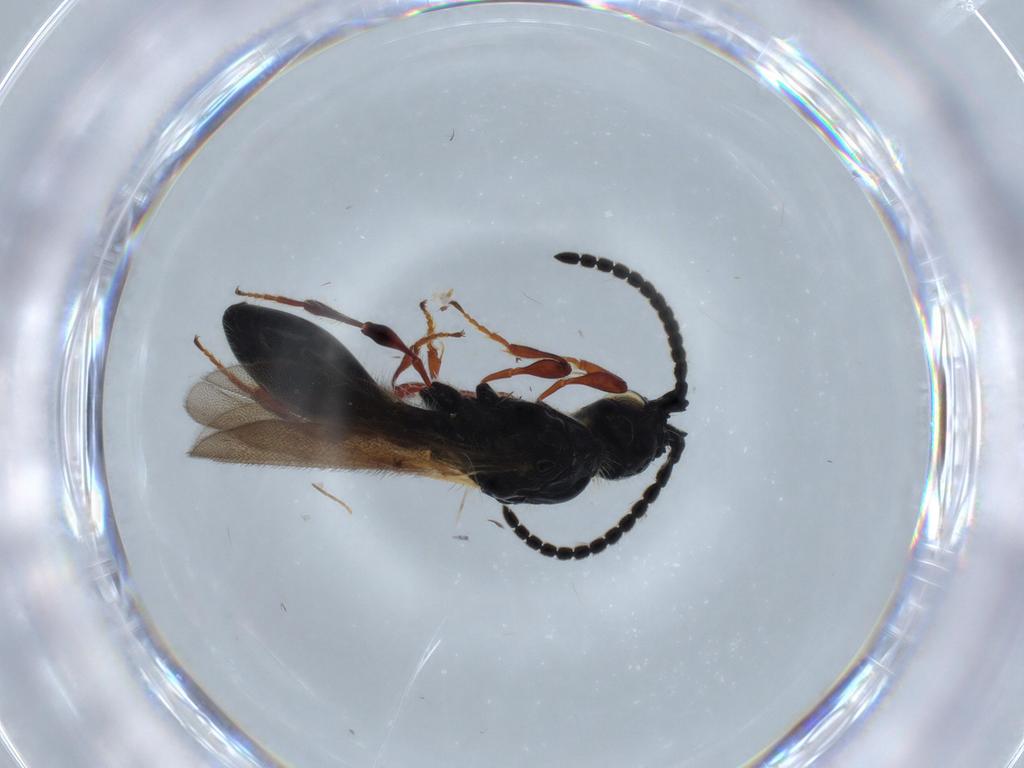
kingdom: Animalia
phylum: Arthropoda
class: Insecta
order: Hymenoptera
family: Diapriidae
